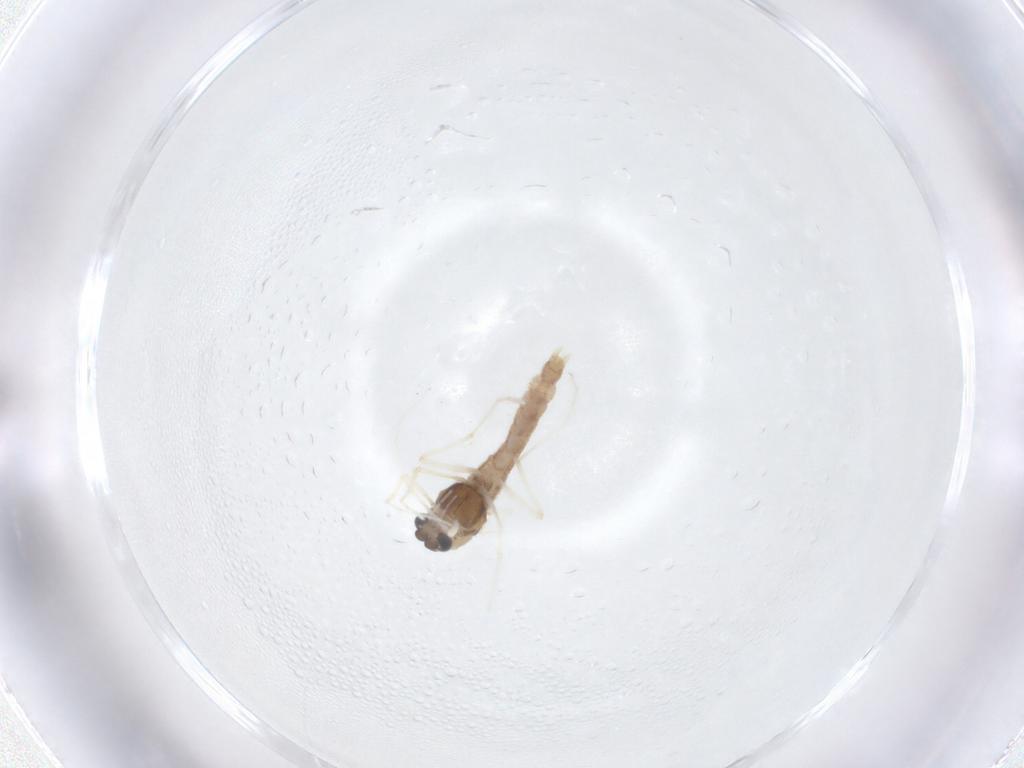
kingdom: Animalia
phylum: Arthropoda
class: Insecta
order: Diptera
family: Chironomidae
